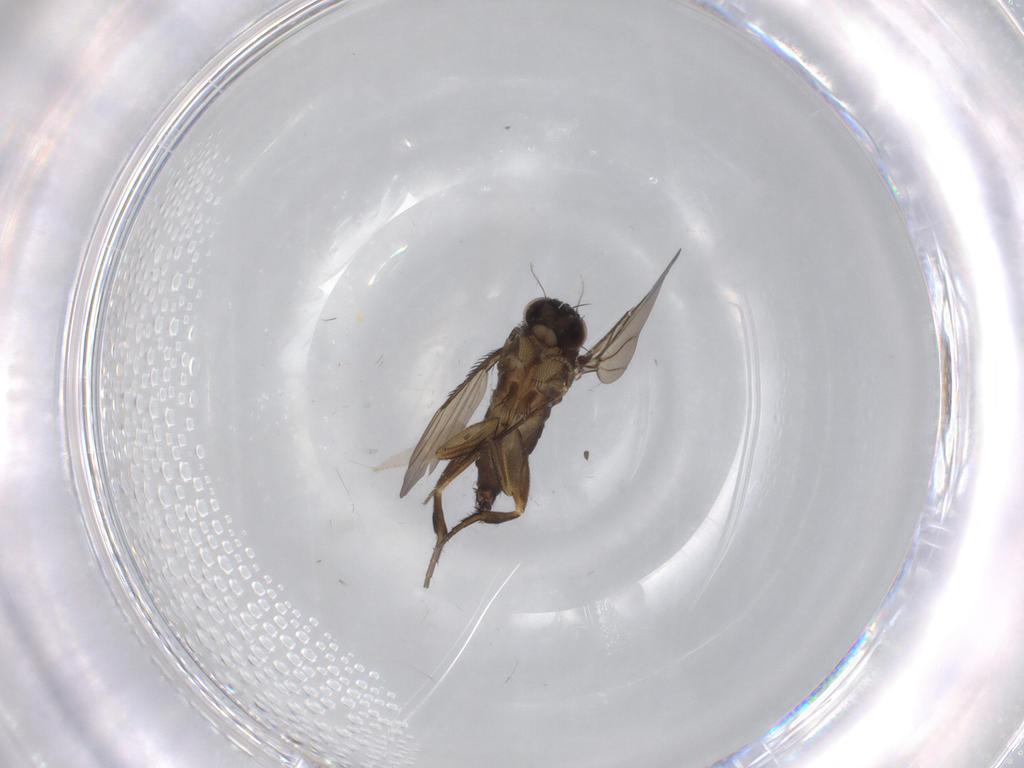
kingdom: Animalia
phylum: Arthropoda
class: Insecta
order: Diptera
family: Phoridae
